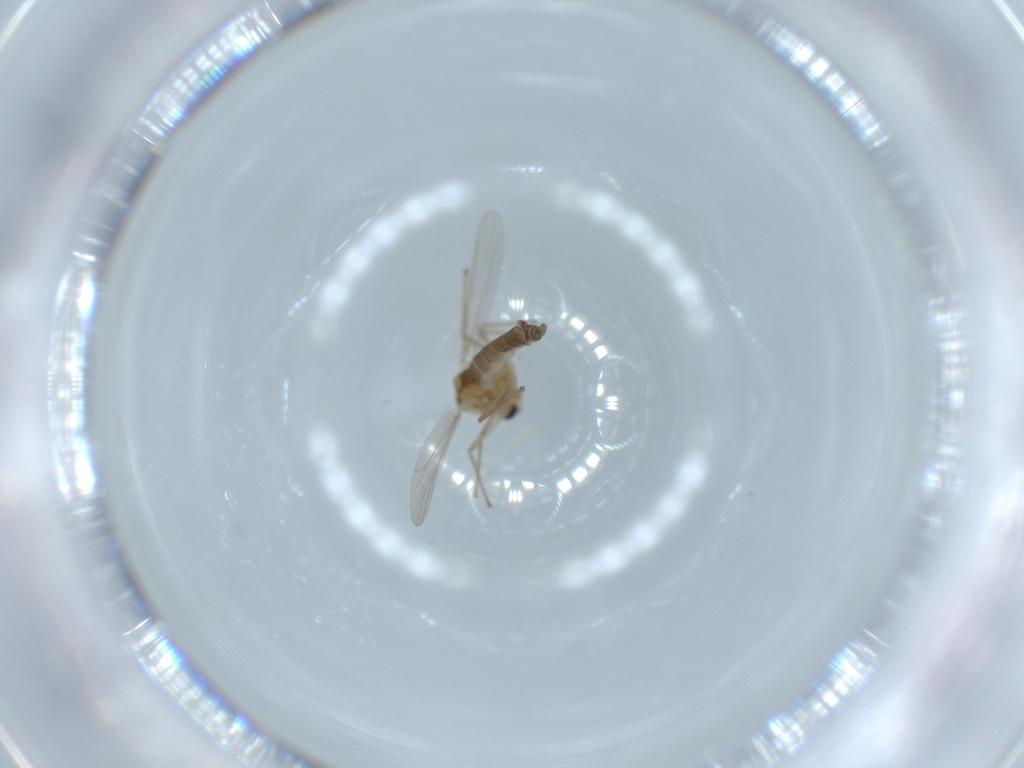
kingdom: Animalia
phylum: Arthropoda
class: Insecta
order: Diptera
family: Chironomidae
